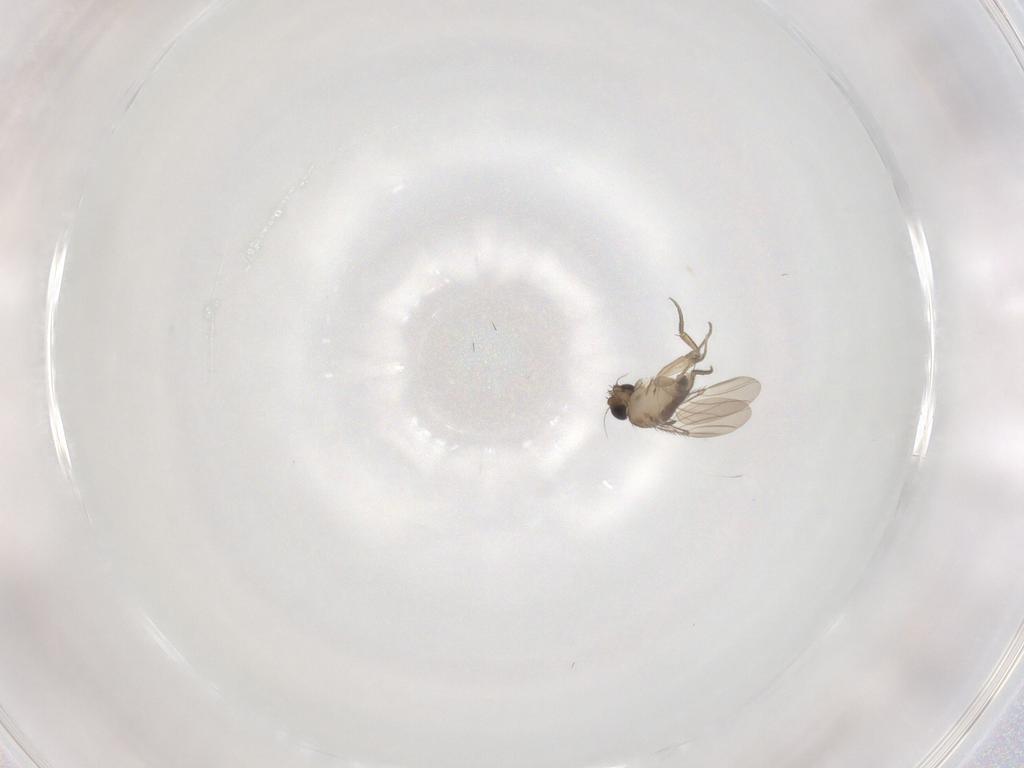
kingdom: Animalia
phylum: Arthropoda
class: Insecta
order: Diptera
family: Phoridae
